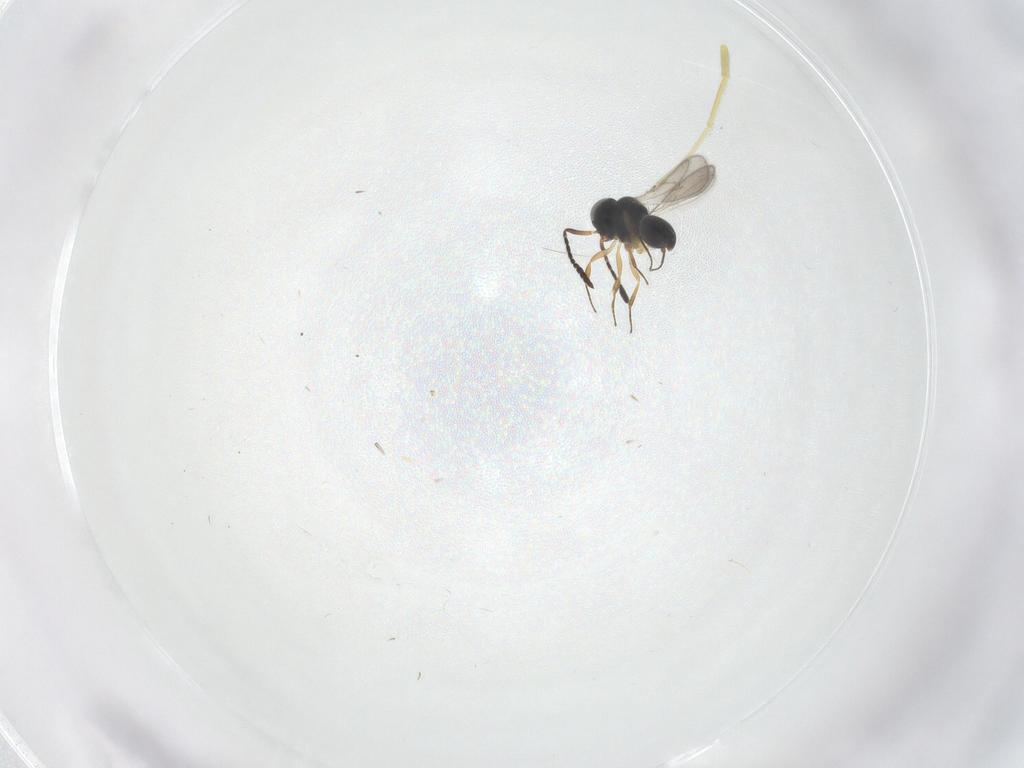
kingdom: Animalia
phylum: Arthropoda
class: Insecta
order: Hymenoptera
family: Scelionidae
